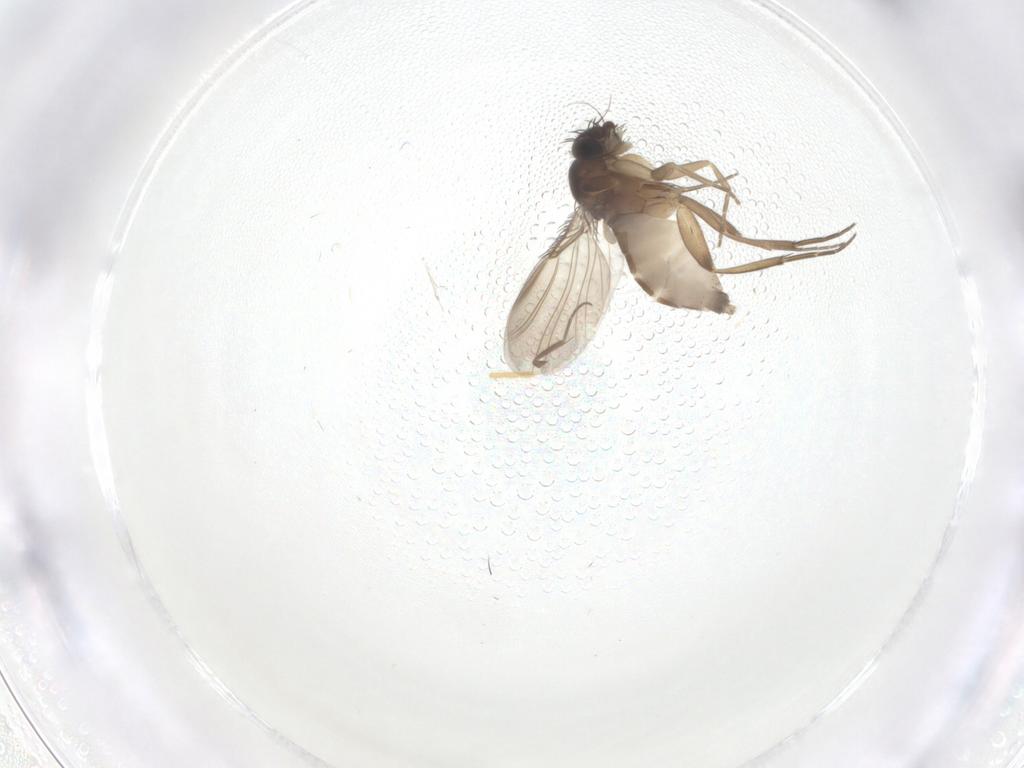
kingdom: Animalia
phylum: Arthropoda
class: Insecta
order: Diptera
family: Phoridae
